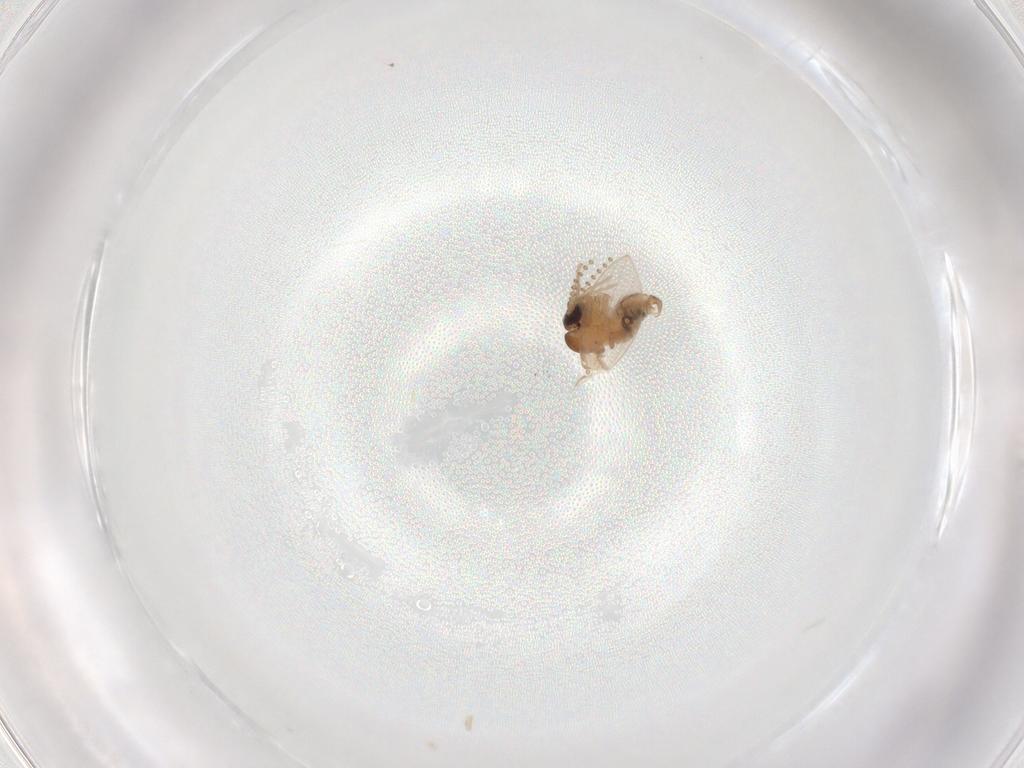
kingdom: Animalia
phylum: Arthropoda
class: Insecta
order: Diptera
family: Psychodidae
